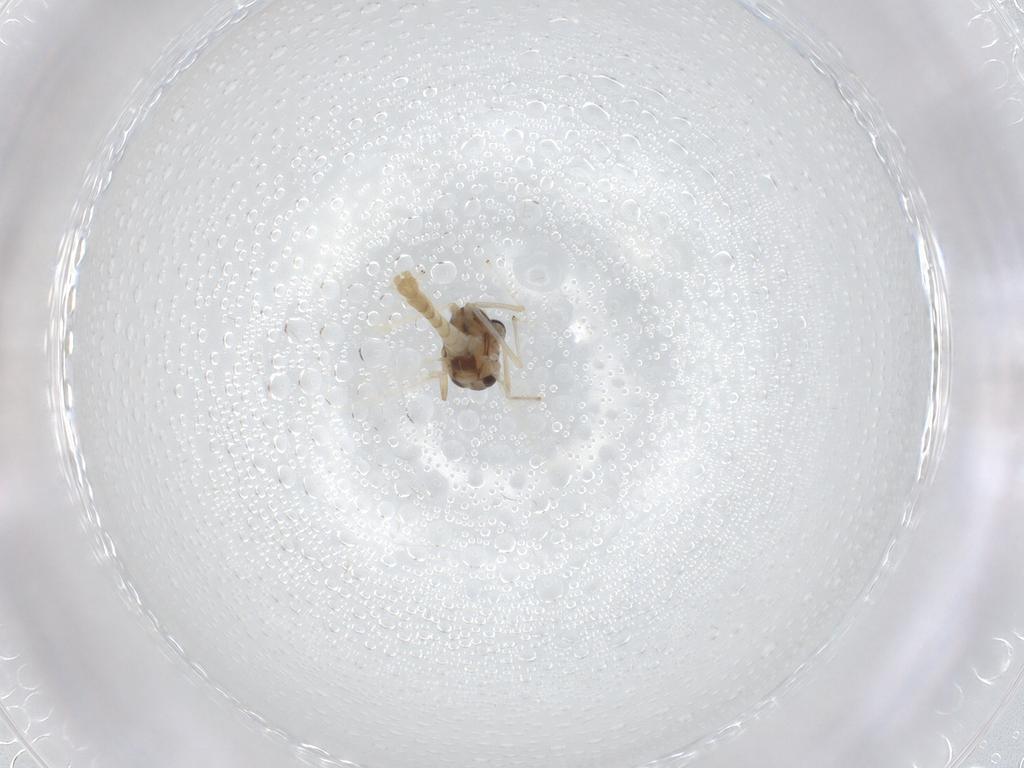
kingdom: Animalia
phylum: Arthropoda
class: Insecta
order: Diptera
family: Chironomidae
